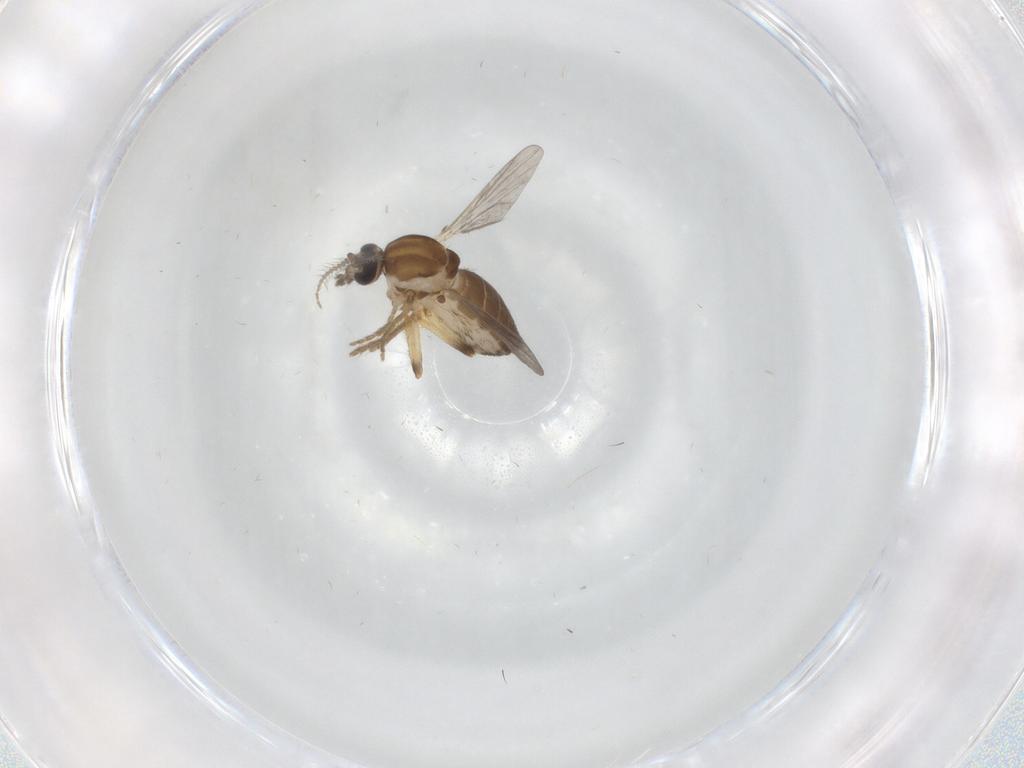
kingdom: Animalia
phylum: Arthropoda
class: Insecta
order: Diptera
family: Ceratopogonidae
